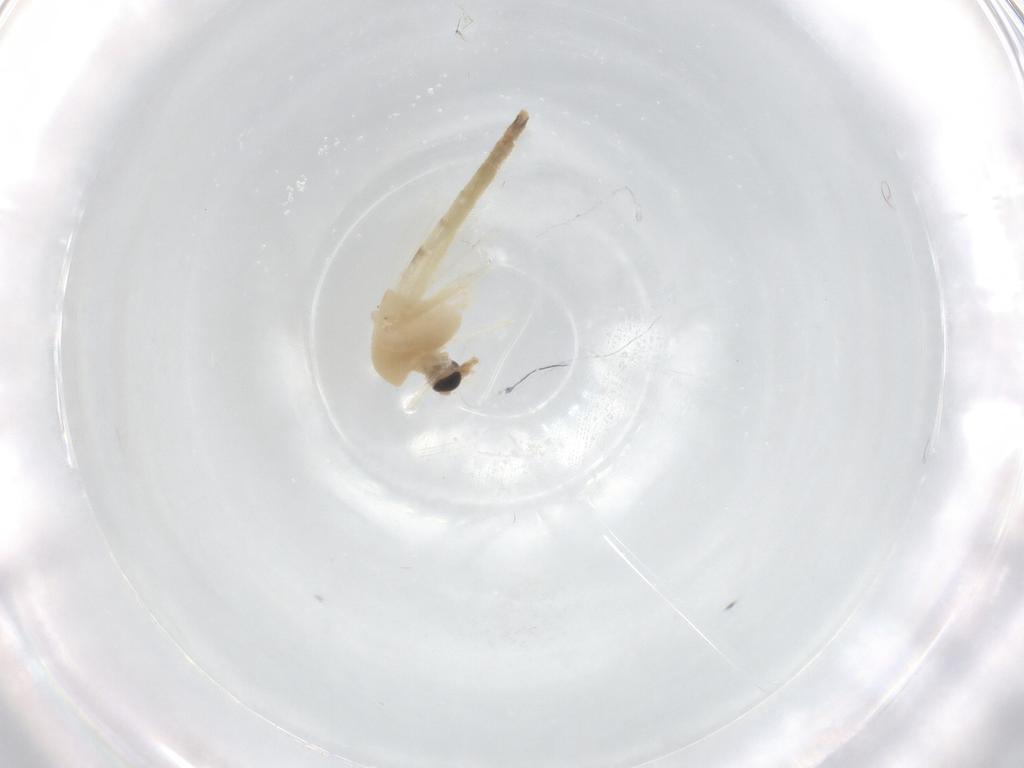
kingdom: Animalia
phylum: Arthropoda
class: Insecta
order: Diptera
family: Chironomidae
